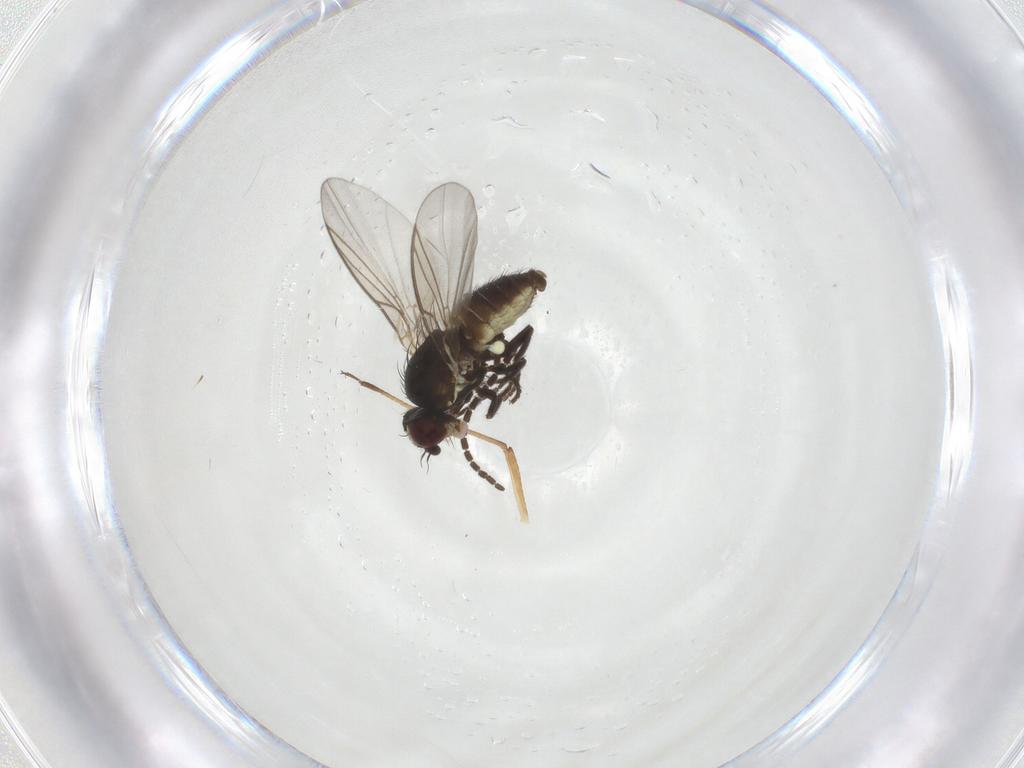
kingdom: Animalia
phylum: Arthropoda
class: Insecta
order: Diptera
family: Sciaridae
